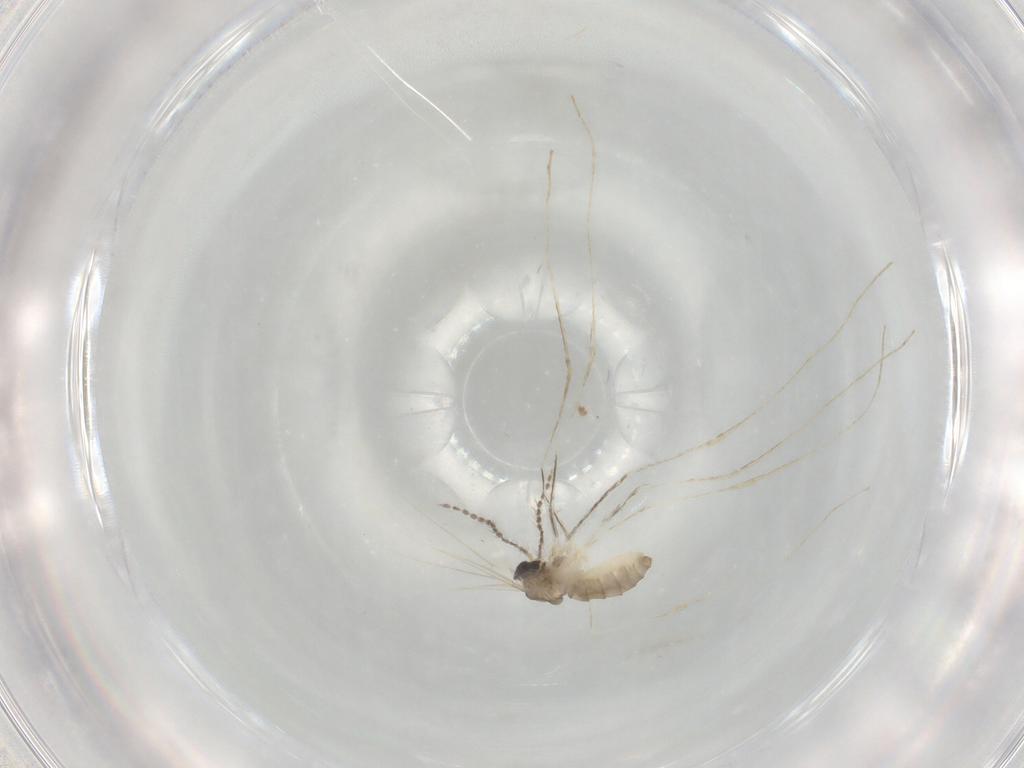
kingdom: Animalia
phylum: Arthropoda
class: Insecta
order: Diptera
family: Cecidomyiidae
